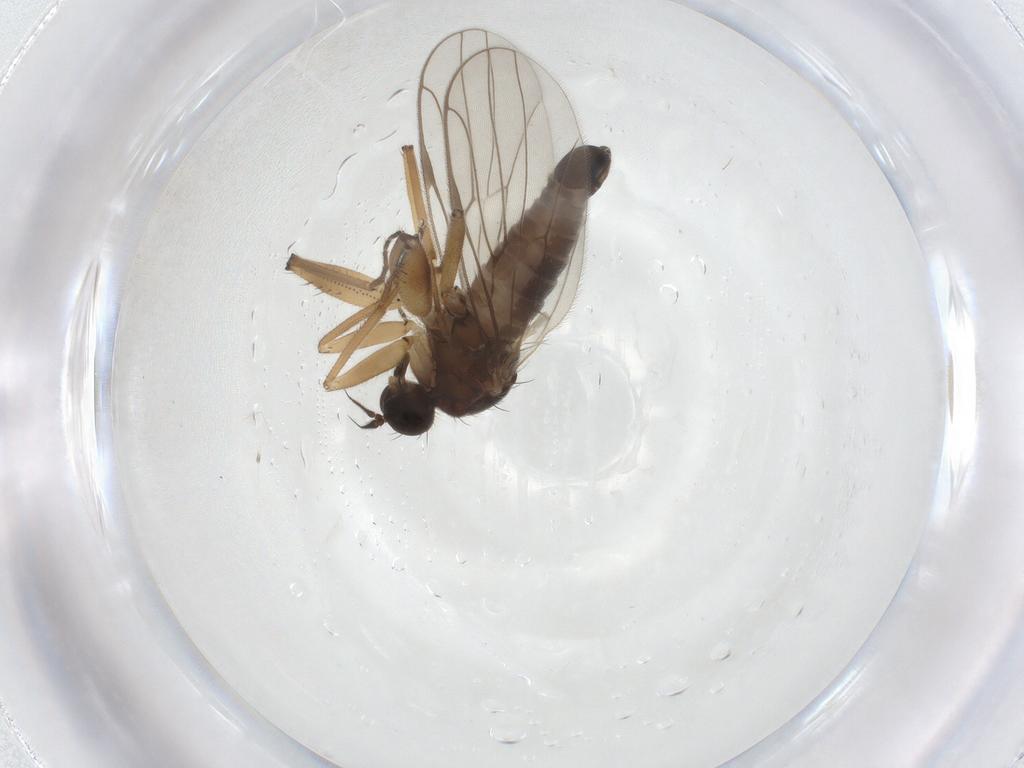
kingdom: Animalia
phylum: Arthropoda
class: Insecta
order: Diptera
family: Hybotidae
